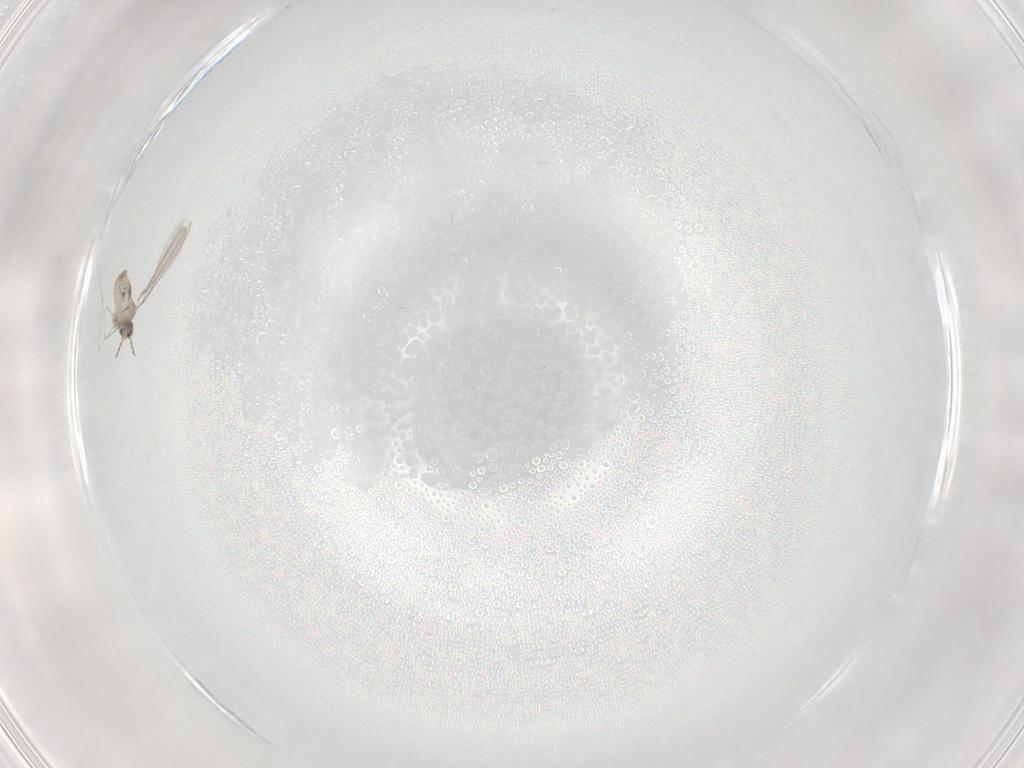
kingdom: Animalia
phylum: Arthropoda
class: Insecta
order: Diptera
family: Cecidomyiidae
